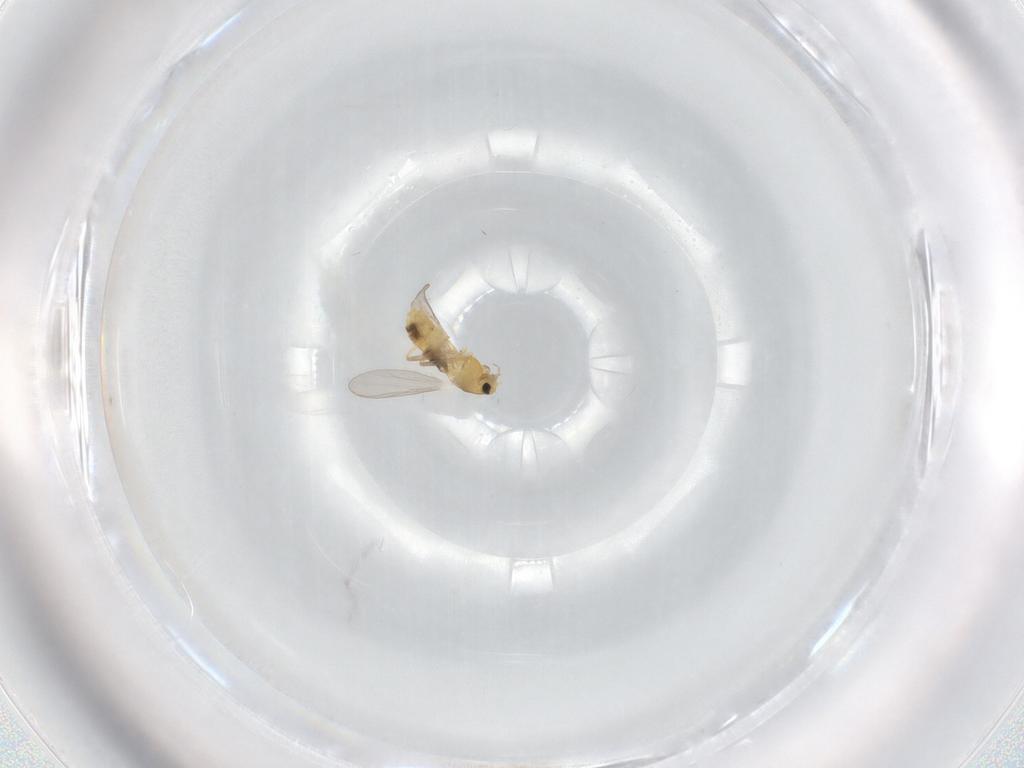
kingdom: Animalia
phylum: Arthropoda
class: Insecta
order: Diptera
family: Chironomidae
